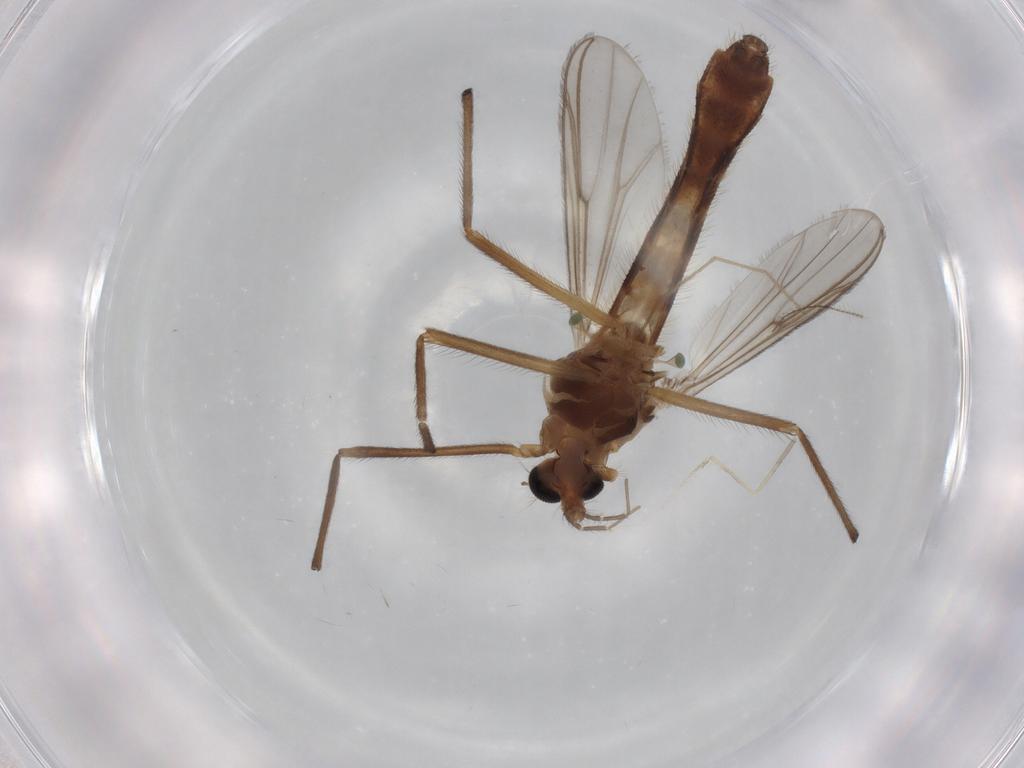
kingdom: Animalia
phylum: Arthropoda
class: Insecta
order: Diptera
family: Chironomidae
